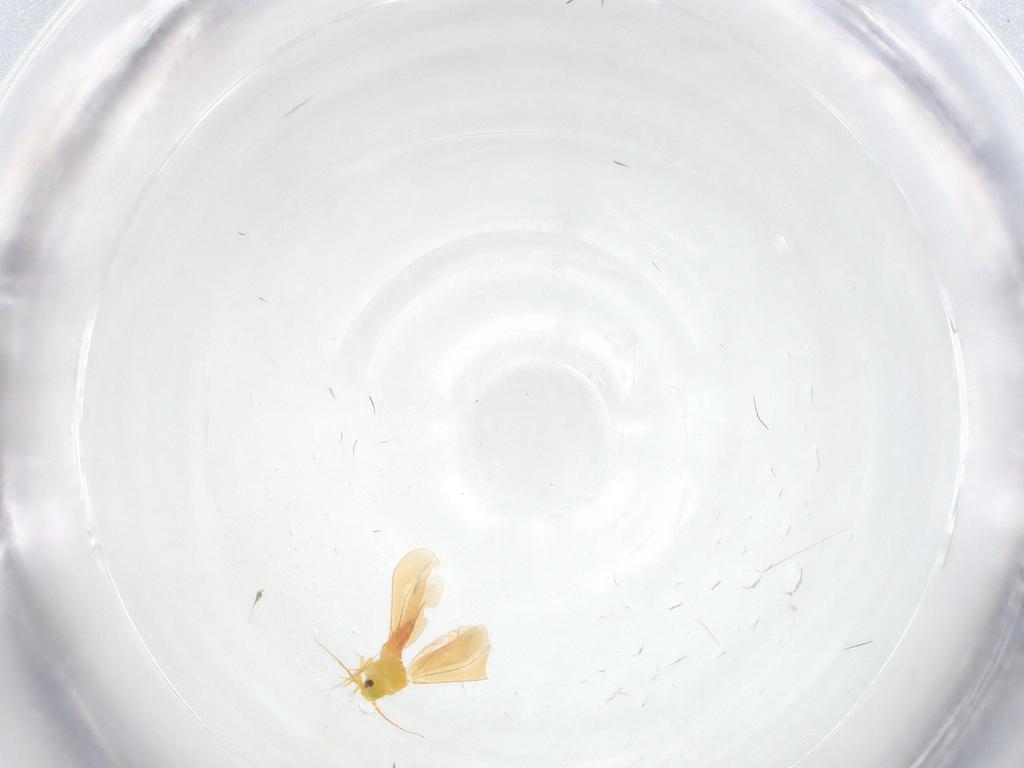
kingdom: Animalia
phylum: Arthropoda
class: Insecta
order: Hemiptera
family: Aleyrodidae
